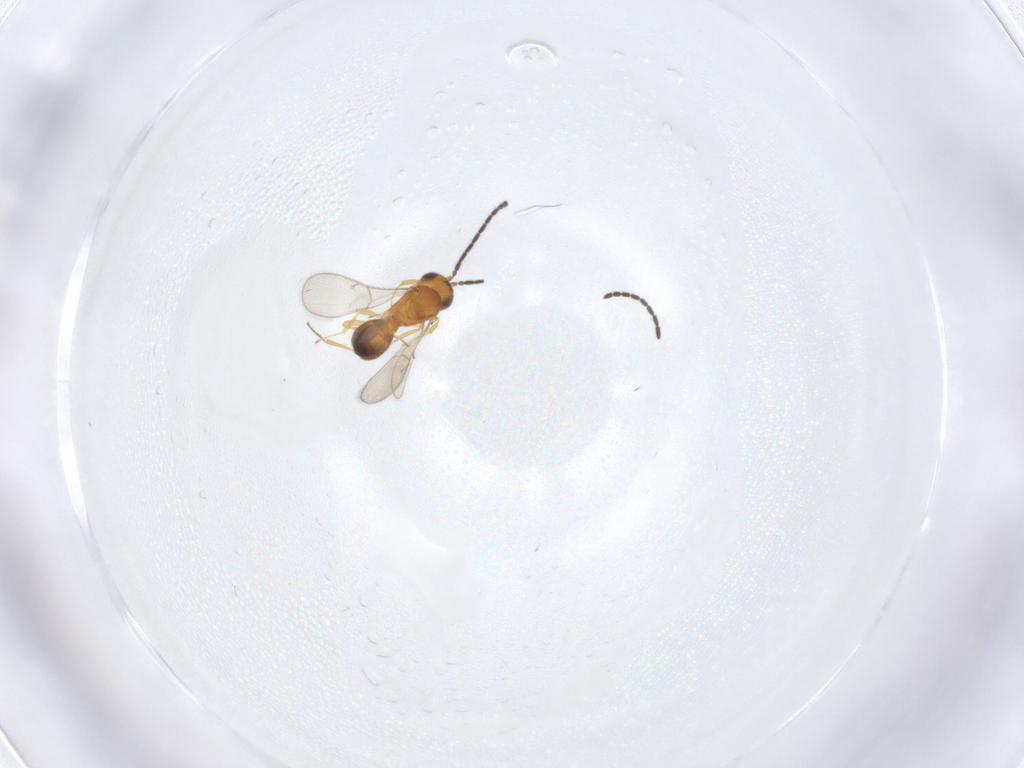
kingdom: Animalia
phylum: Arthropoda
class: Insecta
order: Hymenoptera
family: Scelionidae
